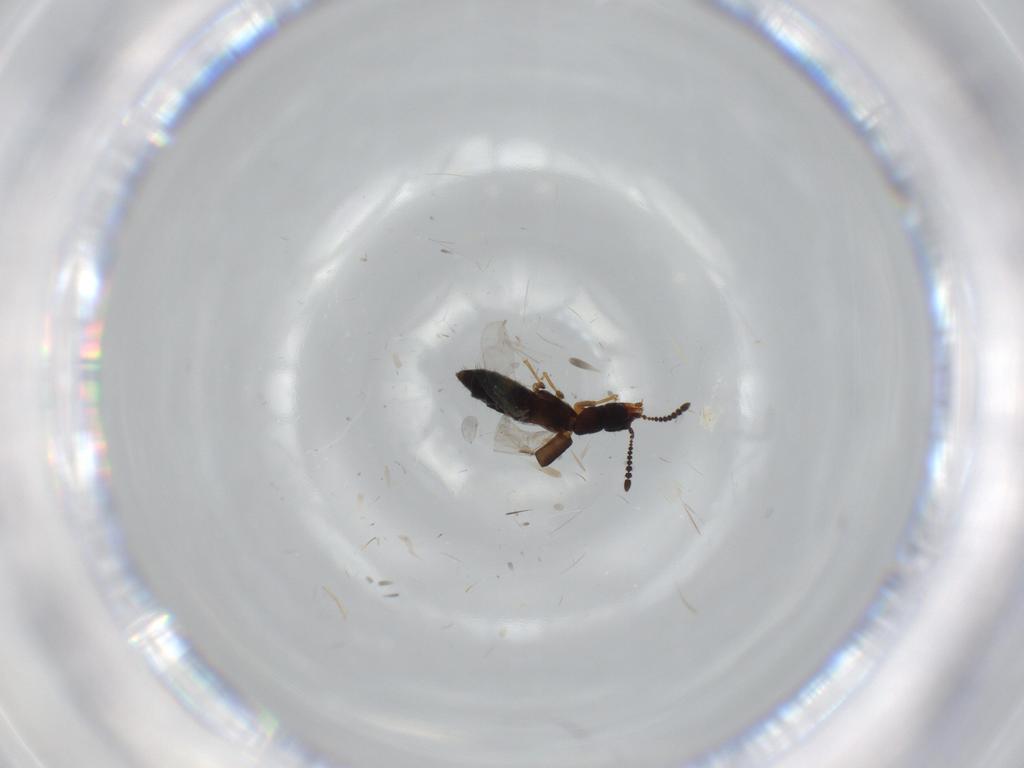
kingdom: Animalia
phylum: Arthropoda
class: Insecta
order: Coleoptera
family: Staphylinidae
